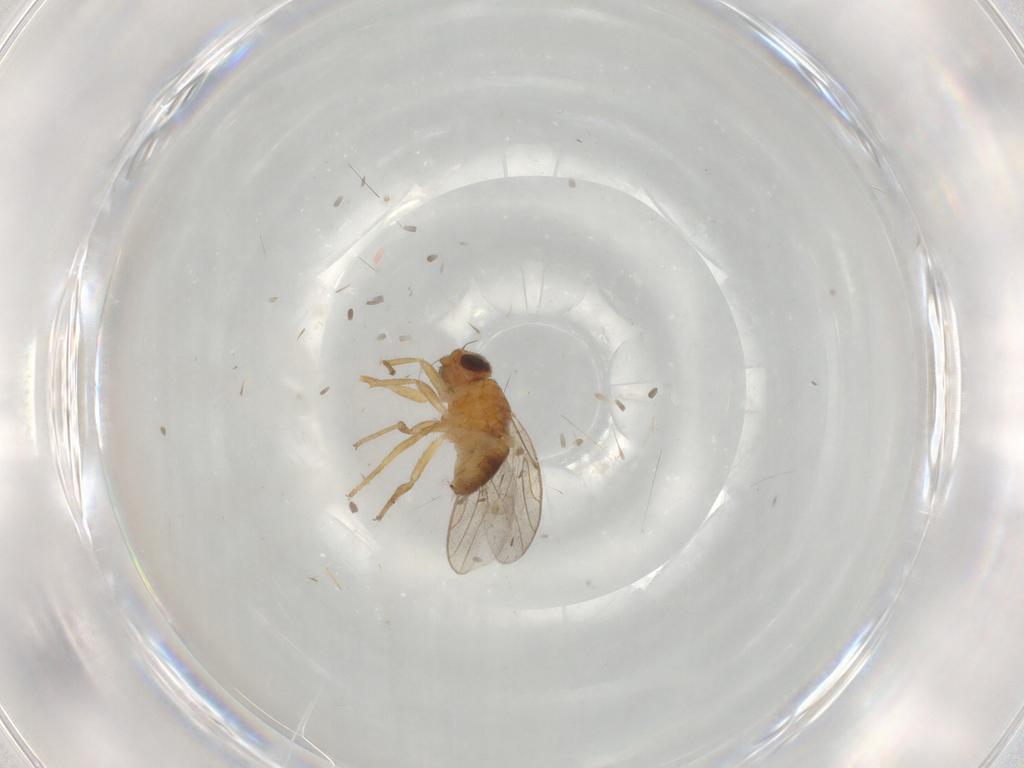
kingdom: Animalia
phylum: Arthropoda
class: Insecta
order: Diptera
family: Chloropidae
